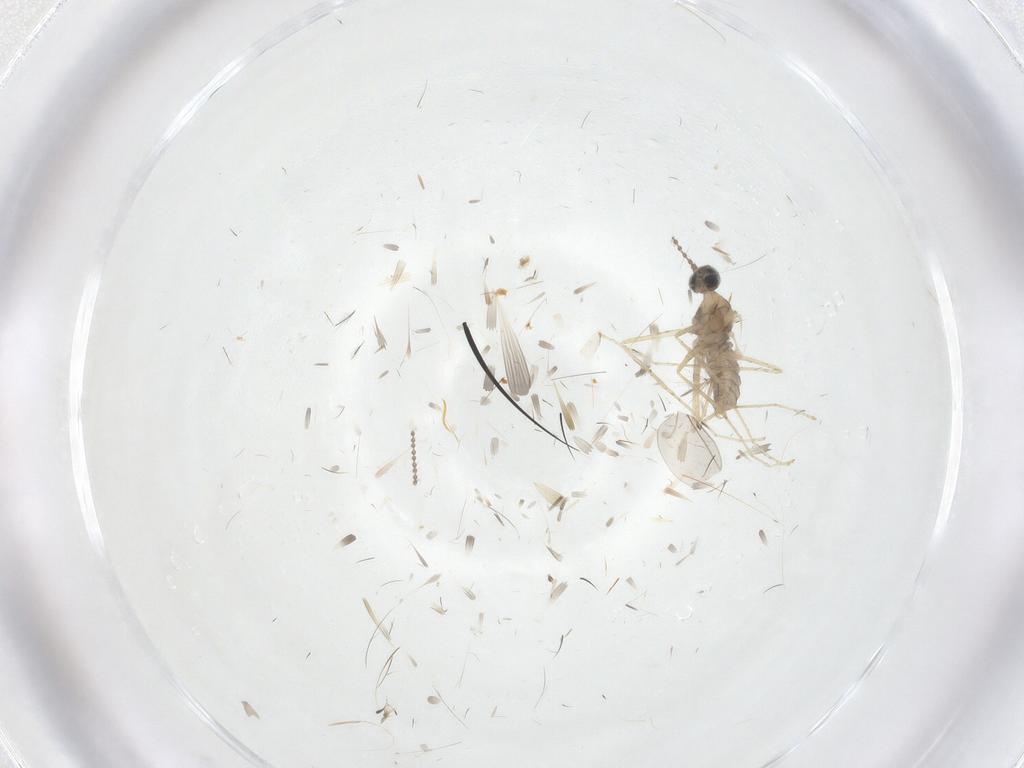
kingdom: Animalia
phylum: Arthropoda
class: Insecta
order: Diptera
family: Cecidomyiidae
